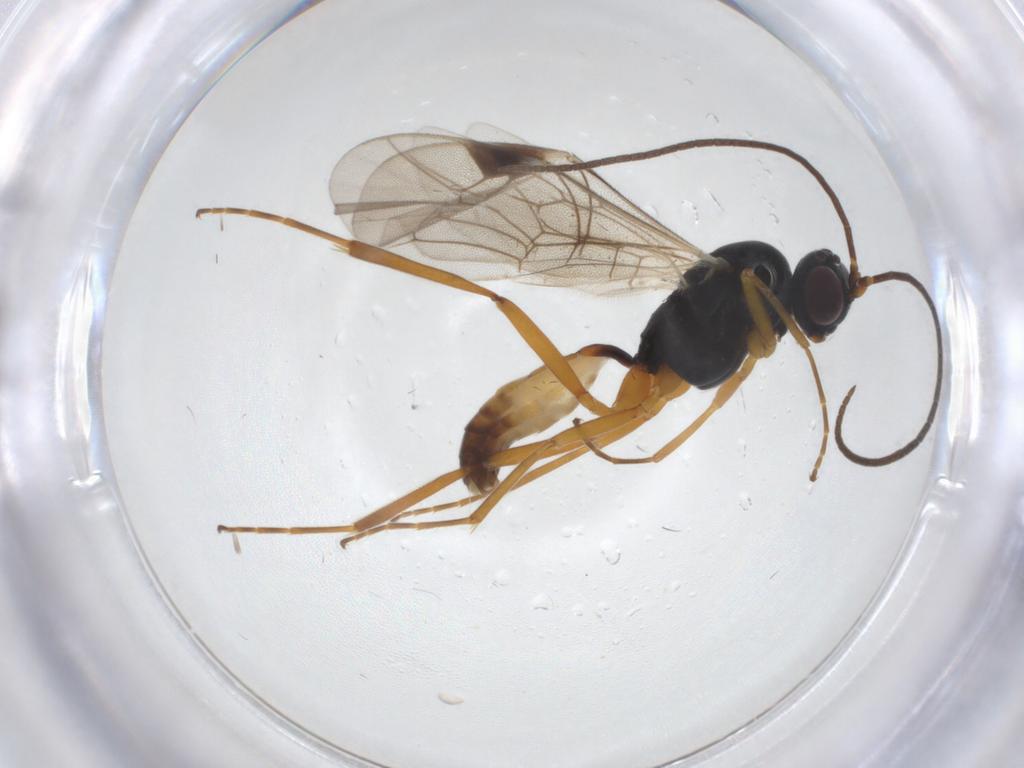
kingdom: Animalia
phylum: Arthropoda
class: Insecta
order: Hymenoptera
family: Ichneumonidae
